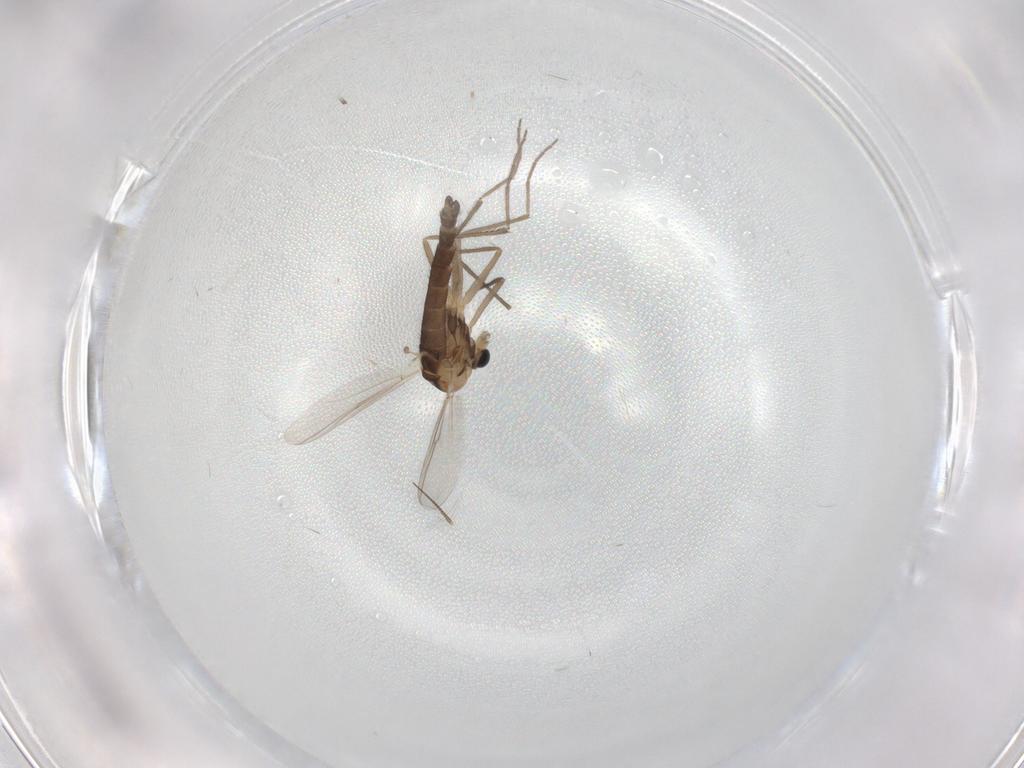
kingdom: Animalia
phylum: Arthropoda
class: Insecta
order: Diptera
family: Chironomidae
